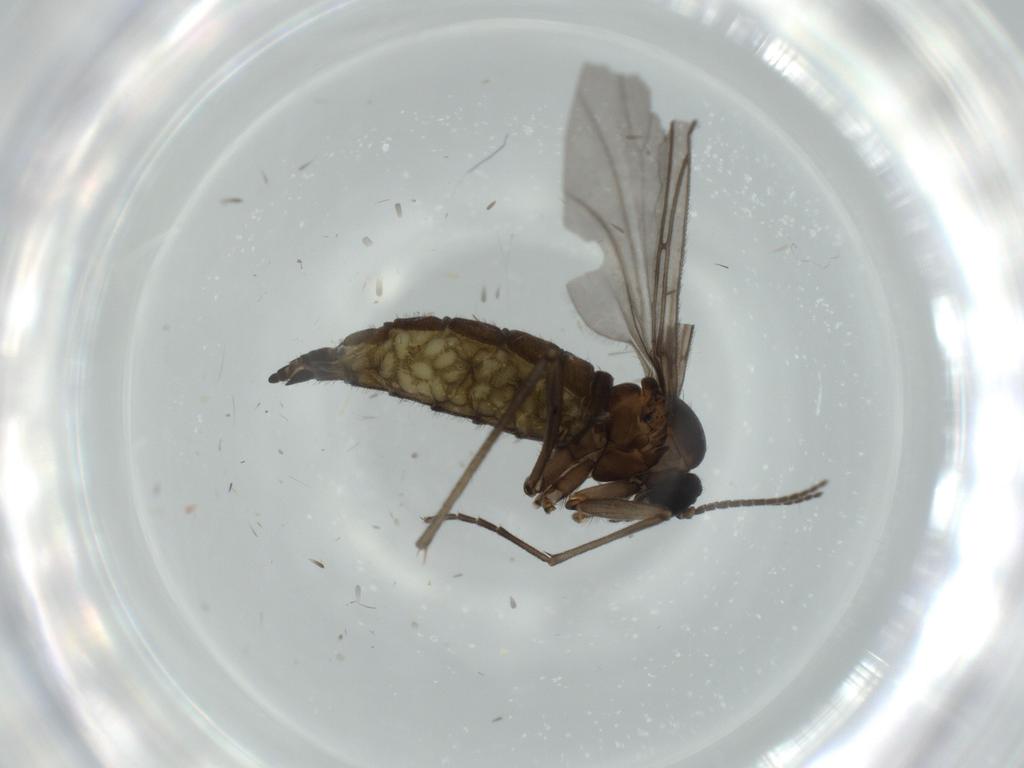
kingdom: Animalia
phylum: Arthropoda
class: Insecta
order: Diptera
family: Sciaridae
